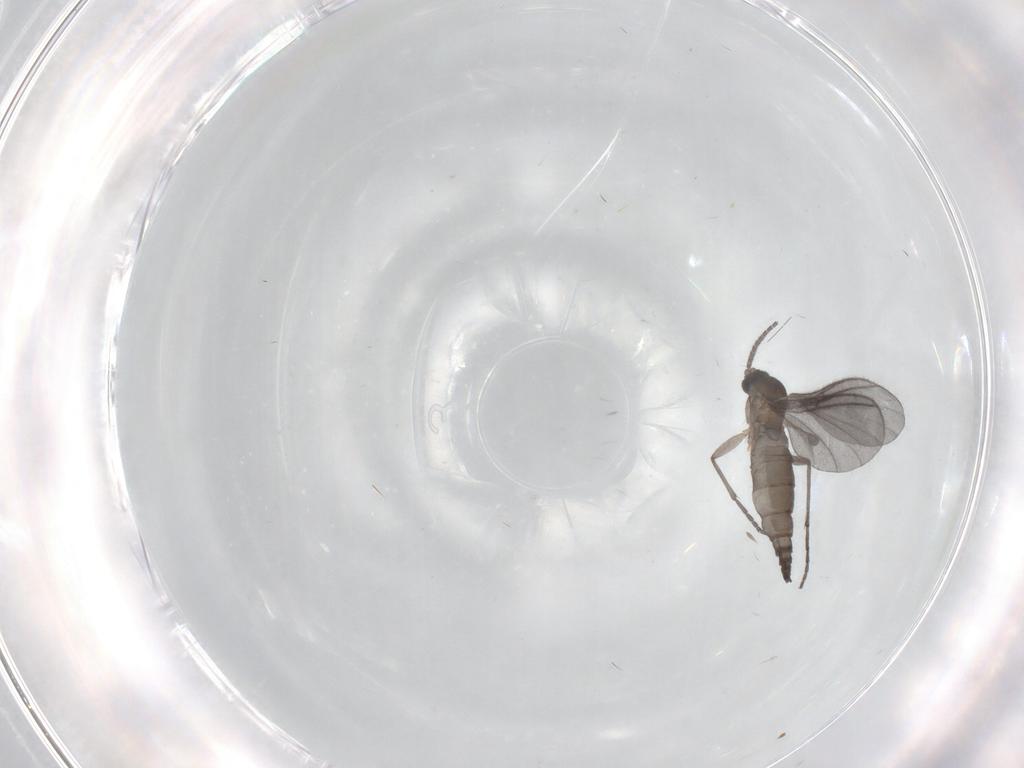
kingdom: Animalia
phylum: Arthropoda
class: Insecta
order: Diptera
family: Sciaridae
